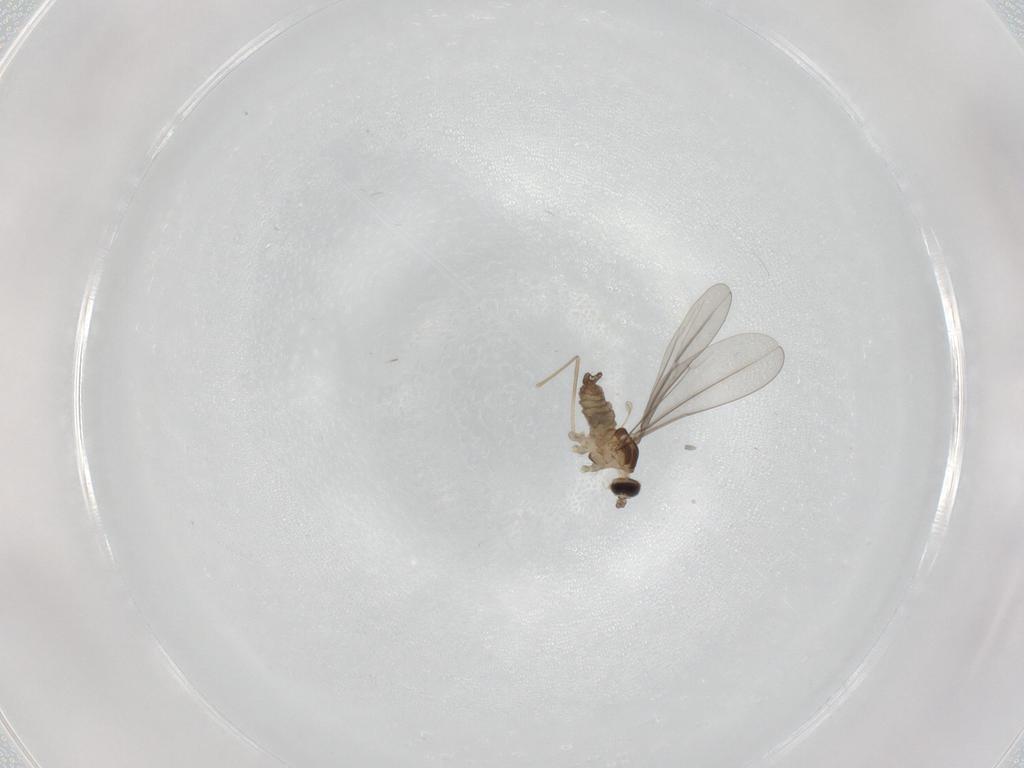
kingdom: Animalia
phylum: Arthropoda
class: Insecta
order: Diptera
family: Cecidomyiidae
